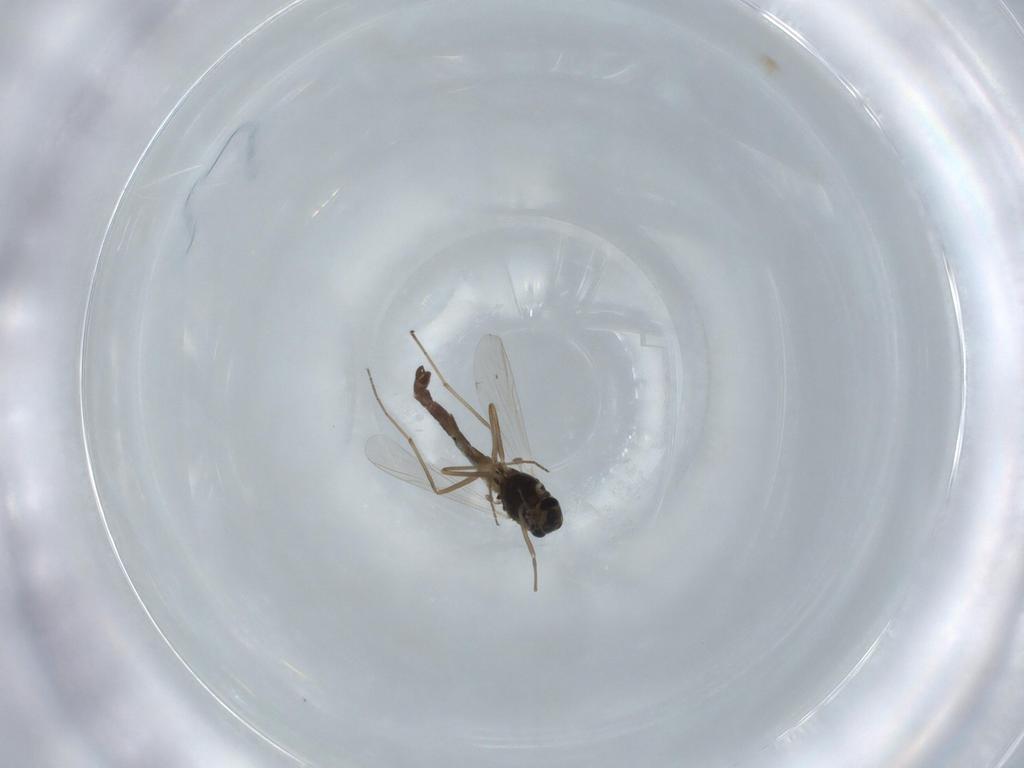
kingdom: Animalia
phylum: Arthropoda
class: Insecta
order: Diptera
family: Chironomidae
